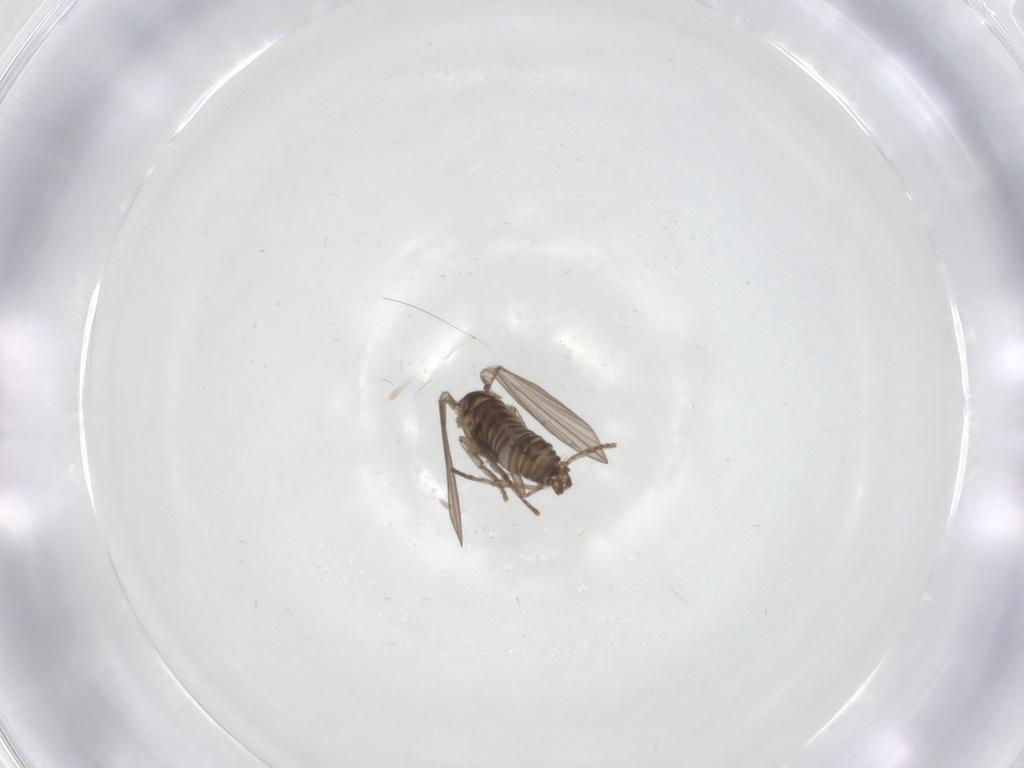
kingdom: Animalia
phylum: Arthropoda
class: Insecta
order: Diptera
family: Psychodidae
